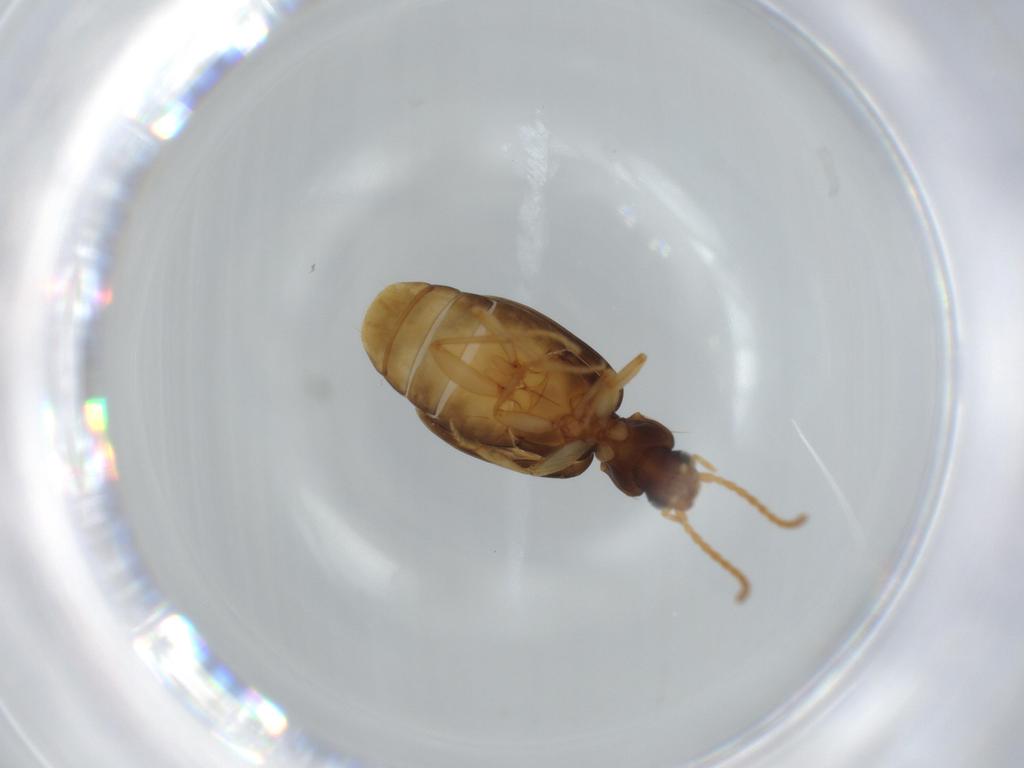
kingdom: Animalia
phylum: Arthropoda
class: Insecta
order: Coleoptera
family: Carabidae
